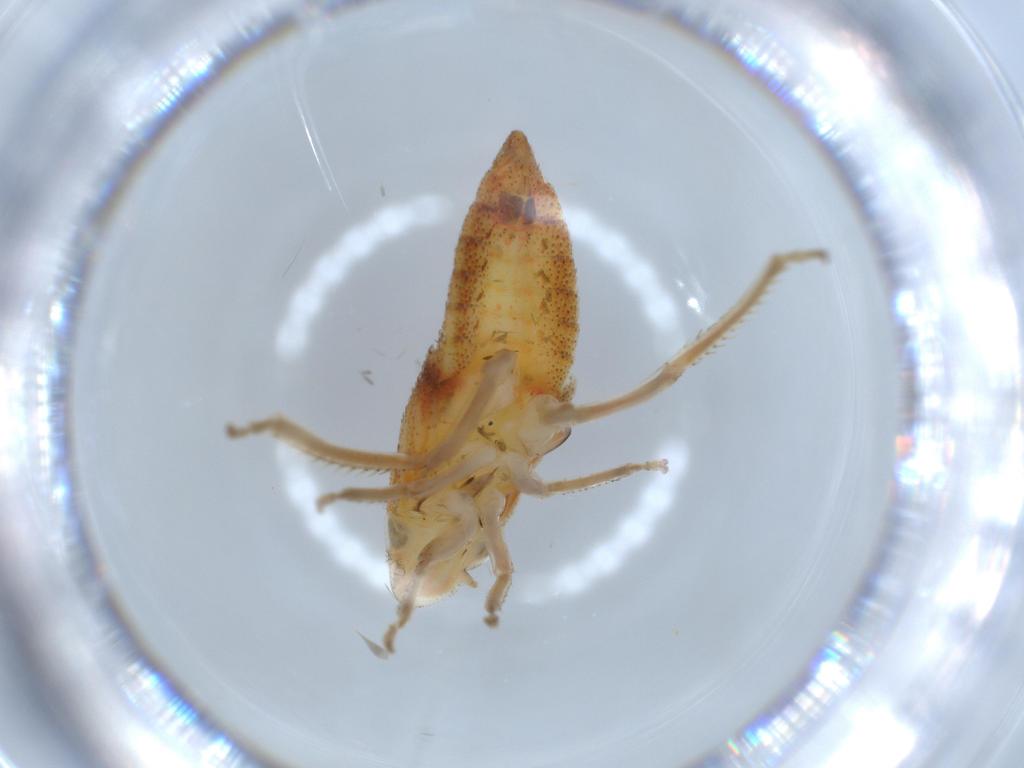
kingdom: Animalia
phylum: Arthropoda
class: Insecta
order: Hemiptera
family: Cicadellidae
